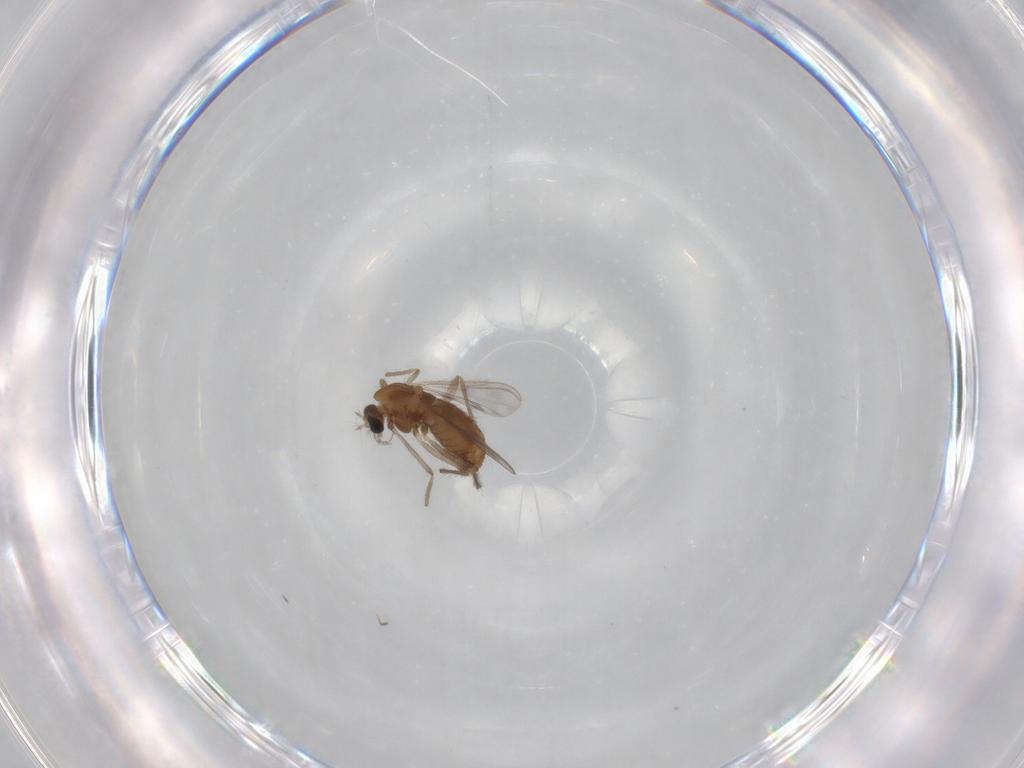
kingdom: Animalia
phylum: Arthropoda
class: Insecta
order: Diptera
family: Chironomidae
